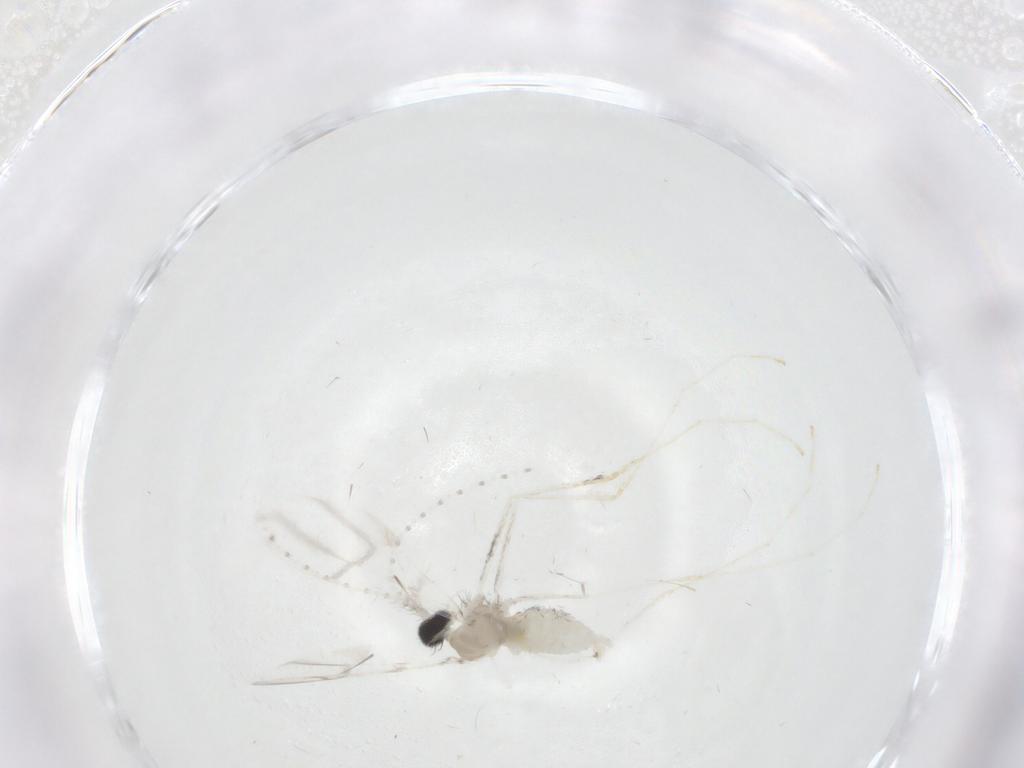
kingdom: Animalia
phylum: Arthropoda
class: Insecta
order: Diptera
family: Cecidomyiidae
